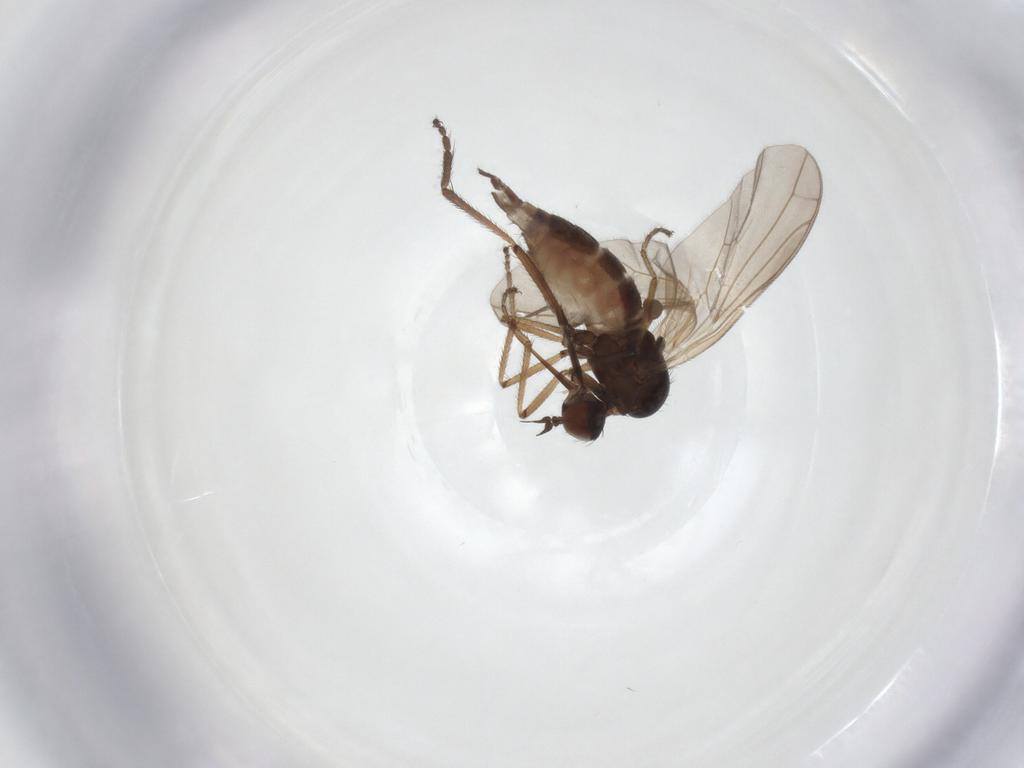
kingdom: Animalia
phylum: Arthropoda
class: Insecta
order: Diptera
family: Empididae
